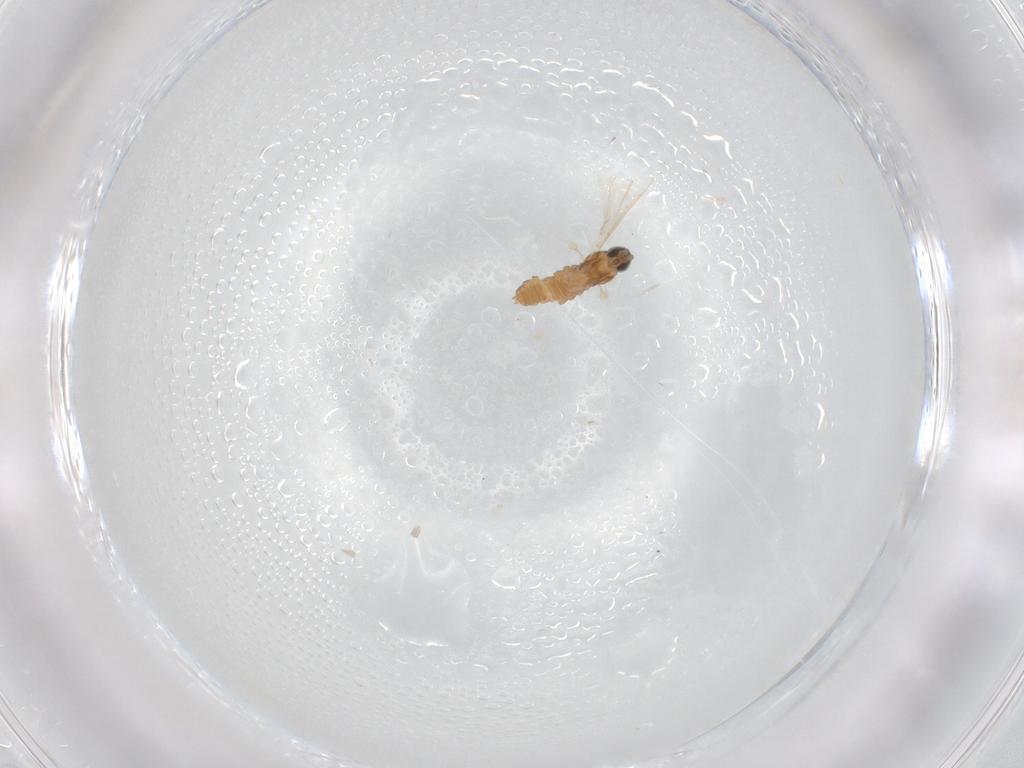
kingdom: Animalia
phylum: Arthropoda
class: Insecta
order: Diptera
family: Cecidomyiidae
